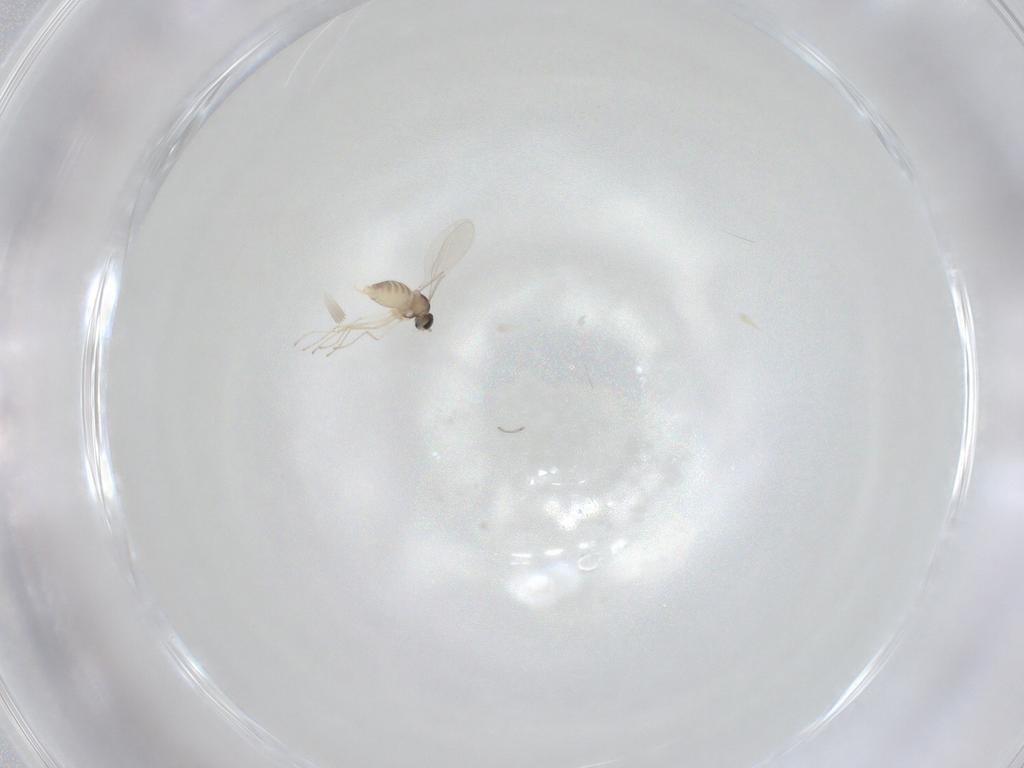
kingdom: Animalia
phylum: Arthropoda
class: Insecta
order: Diptera
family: Cecidomyiidae
